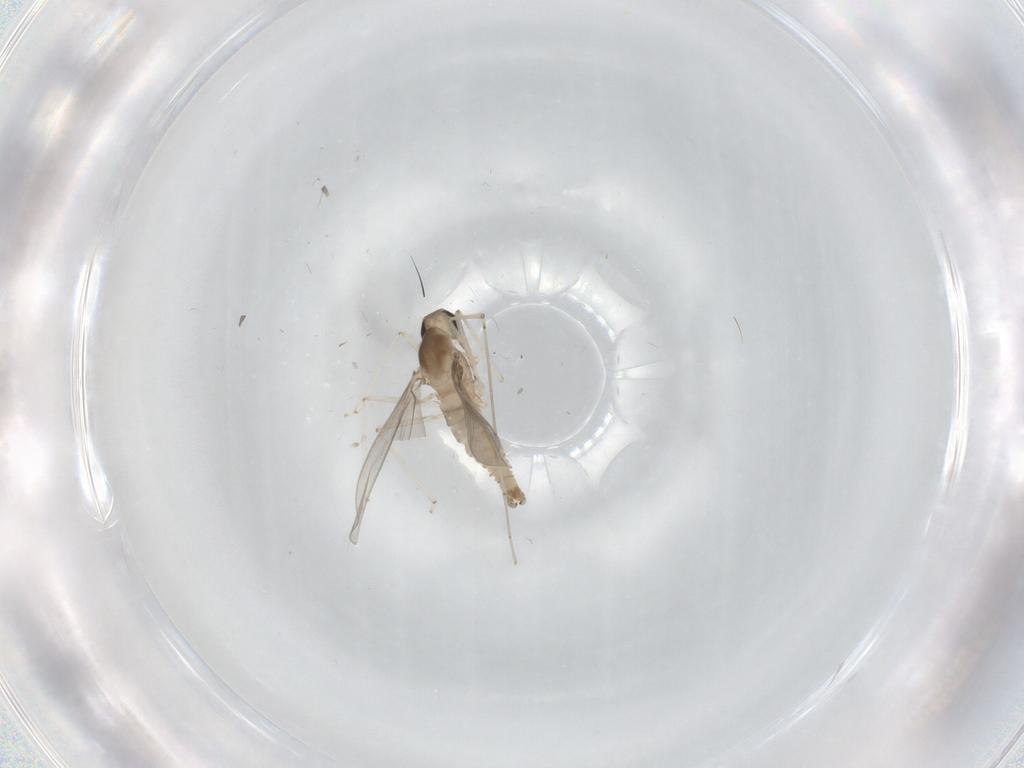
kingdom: Animalia
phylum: Arthropoda
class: Insecta
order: Diptera
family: Cecidomyiidae
